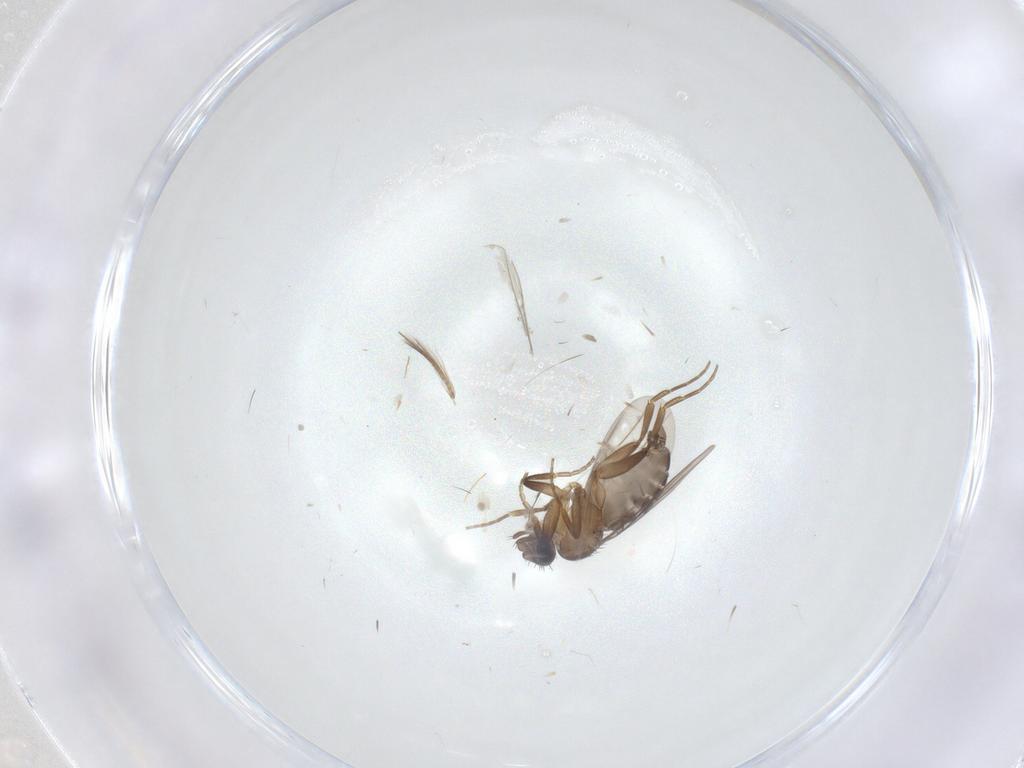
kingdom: Animalia
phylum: Arthropoda
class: Insecta
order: Diptera
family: Phoridae
